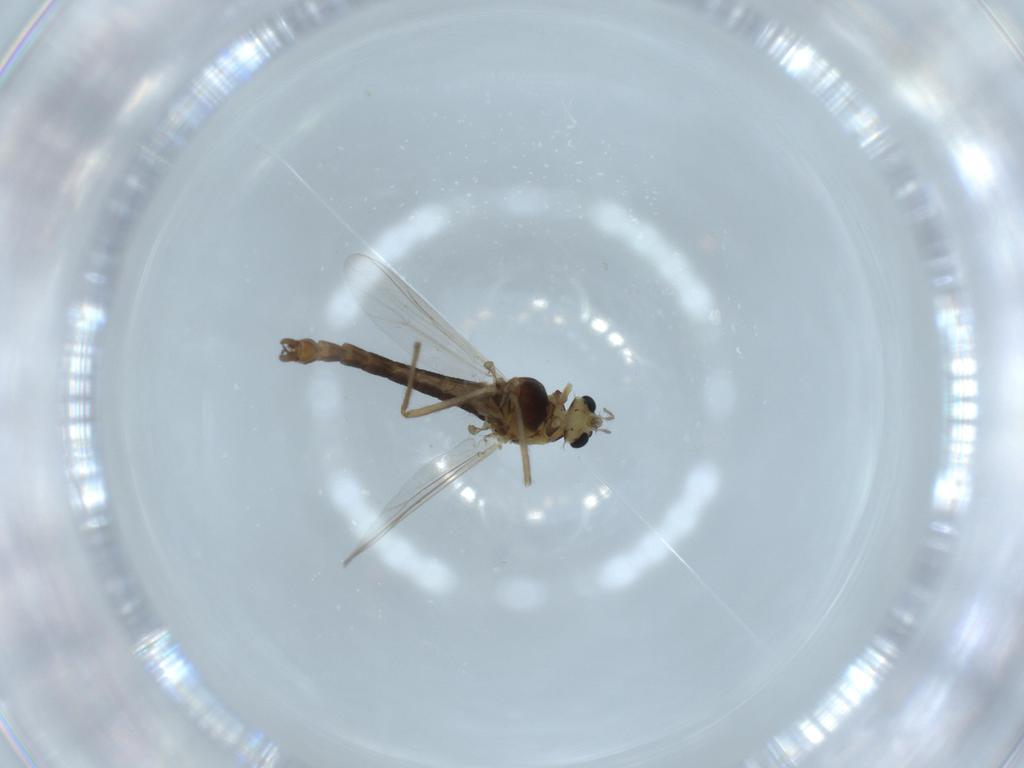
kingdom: Animalia
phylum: Arthropoda
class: Insecta
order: Diptera
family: Chironomidae
